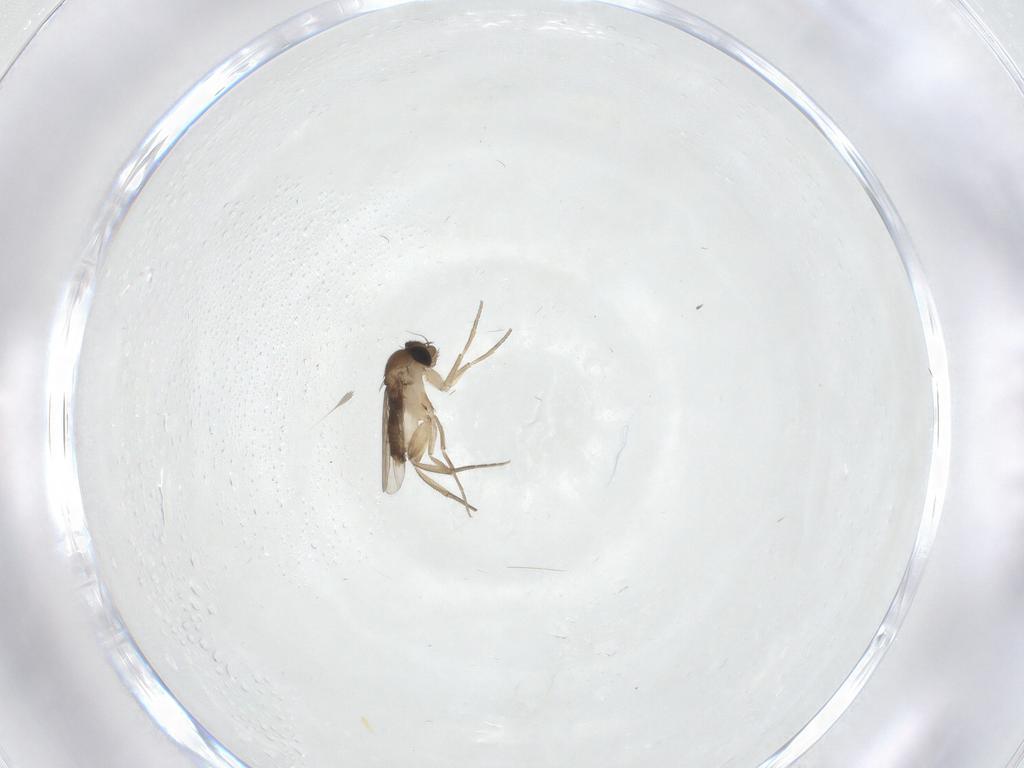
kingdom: Animalia
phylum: Arthropoda
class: Insecta
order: Diptera
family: Phoridae
